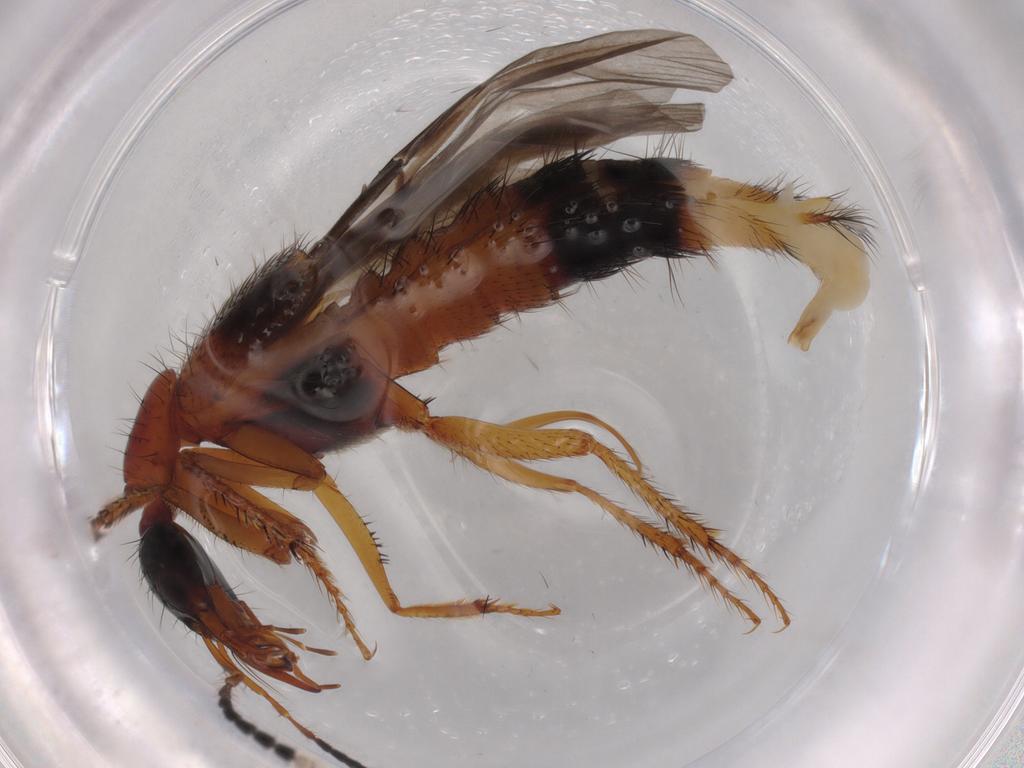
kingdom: Animalia
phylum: Arthropoda
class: Insecta
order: Coleoptera
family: Staphylinidae
